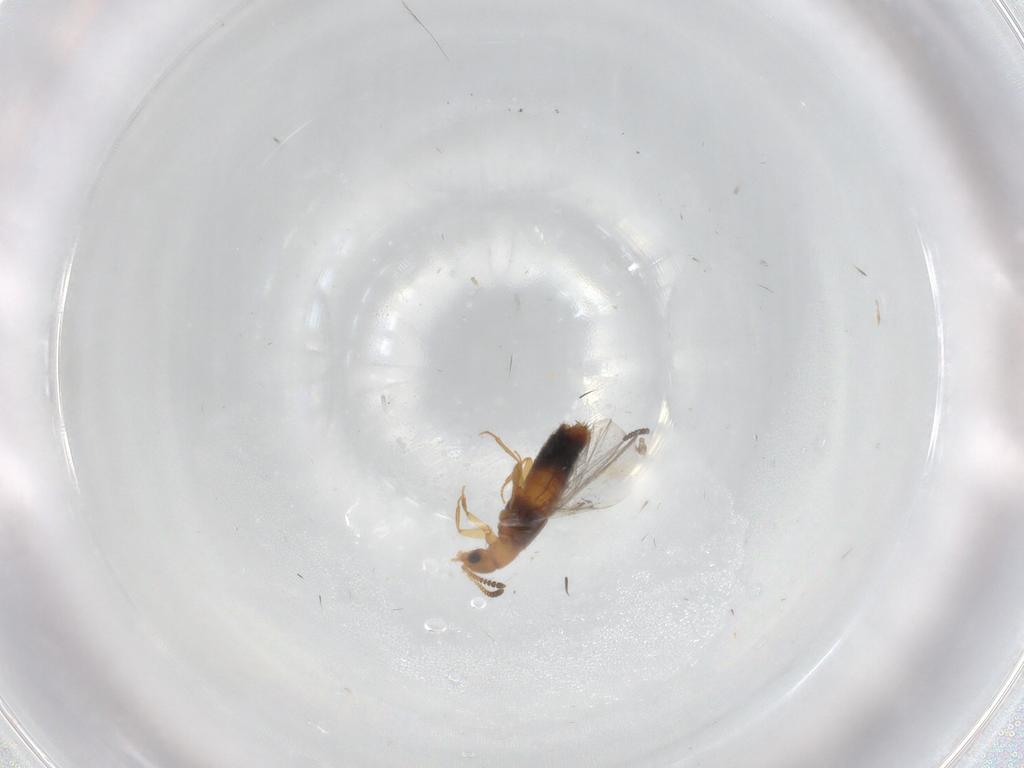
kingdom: Animalia
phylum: Arthropoda
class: Insecta
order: Coleoptera
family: Staphylinidae
